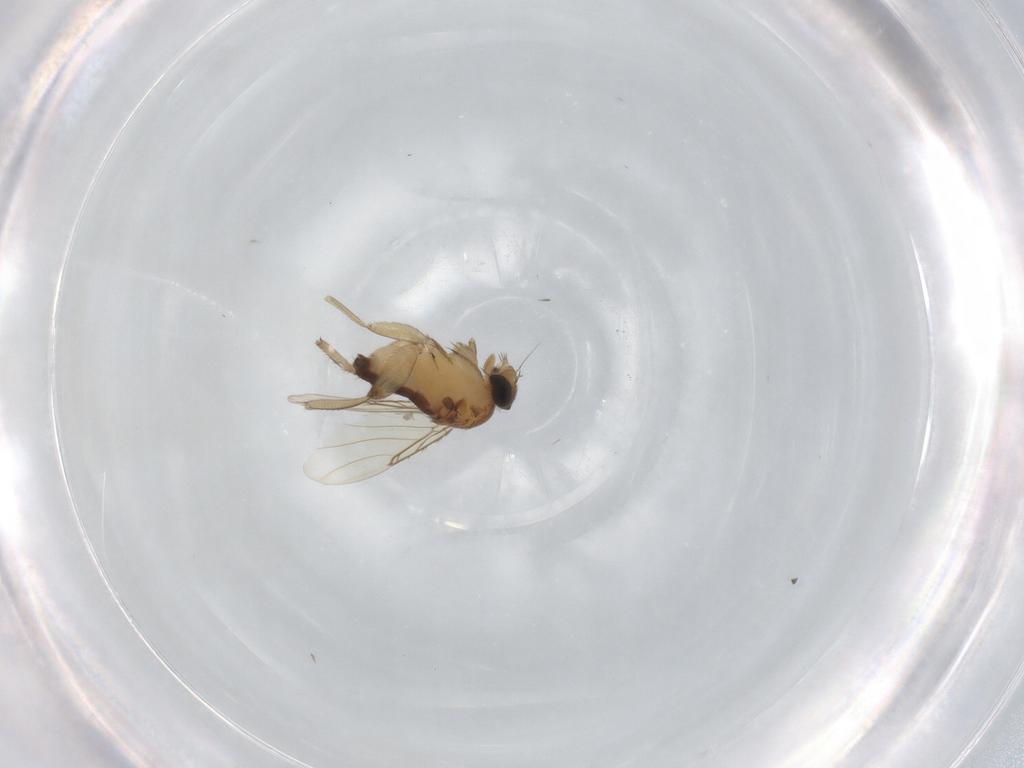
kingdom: Animalia
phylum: Arthropoda
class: Insecta
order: Diptera
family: Phoridae
